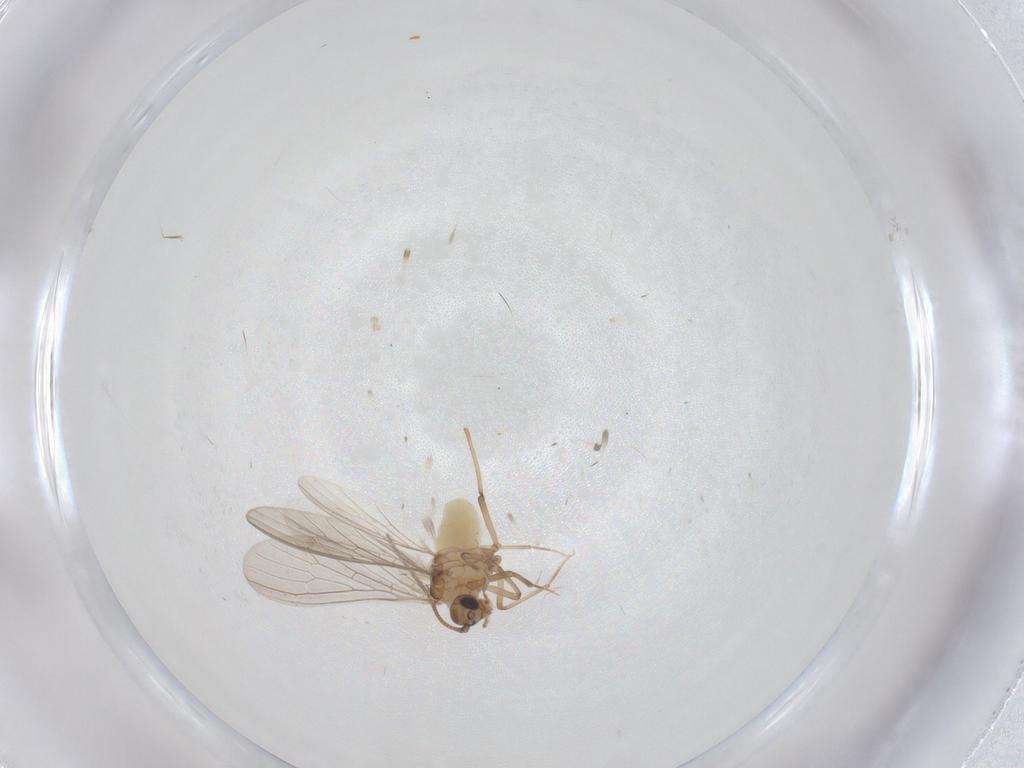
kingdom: Animalia
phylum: Arthropoda
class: Insecta
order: Neuroptera
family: Coniopterygidae
